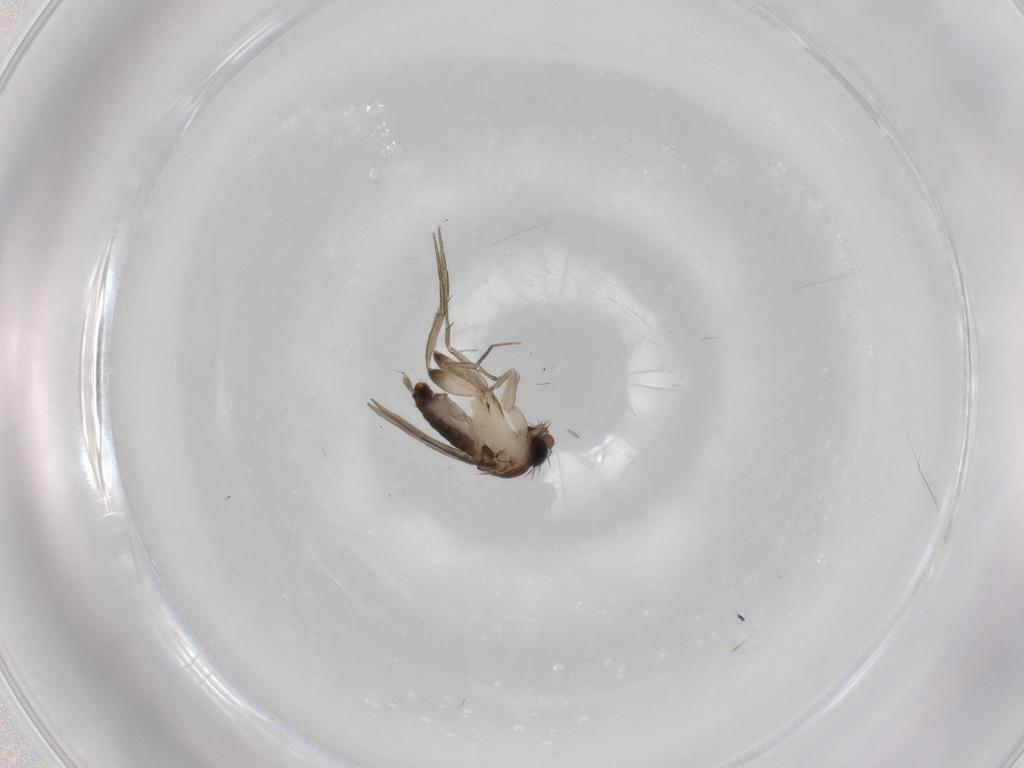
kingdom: Animalia
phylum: Arthropoda
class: Insecta
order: Diptera
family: Phoridae
